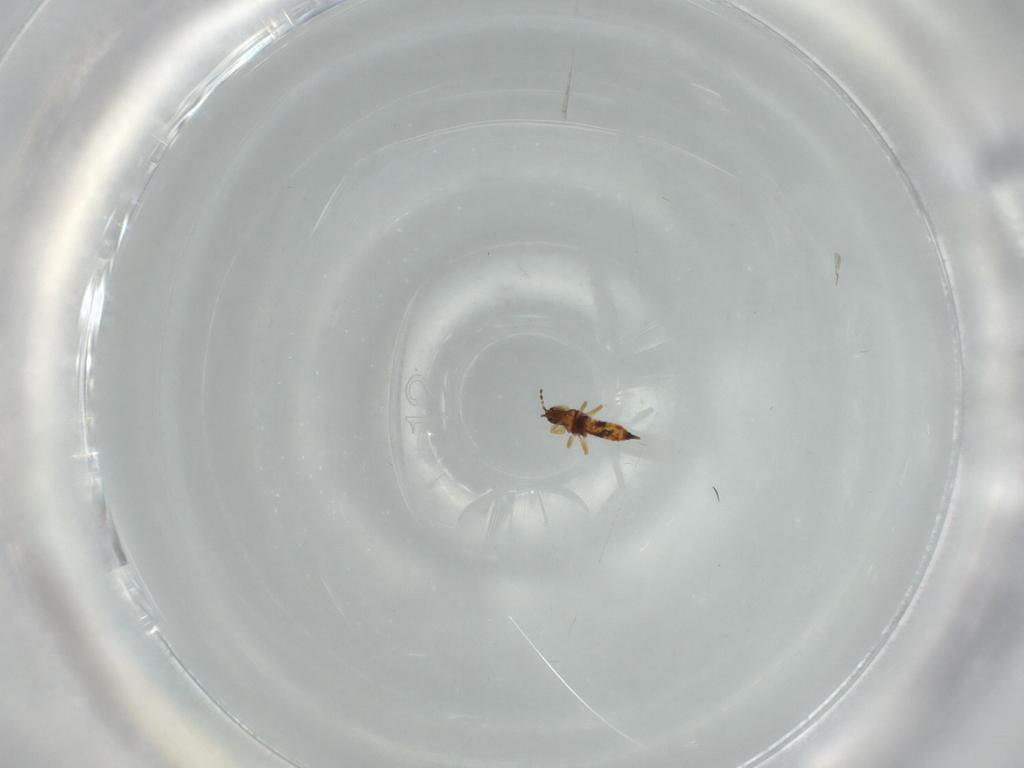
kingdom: Animalia
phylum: Arthropoda
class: Insecta
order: Thysanoptera
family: Phlaeothripidae
